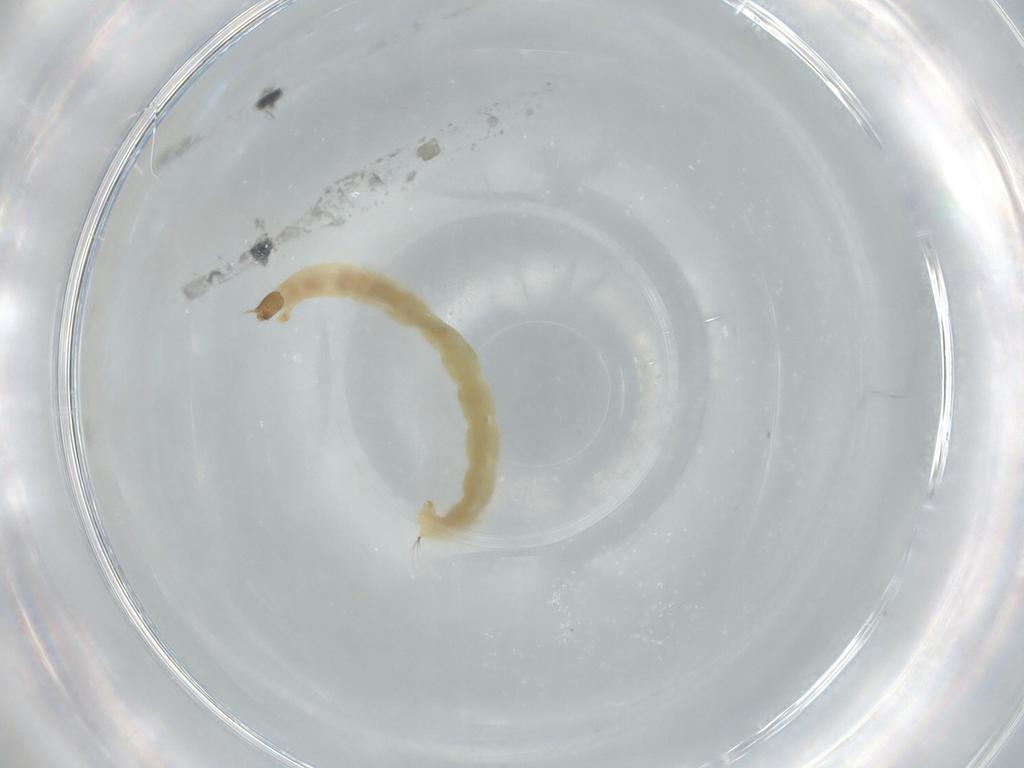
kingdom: Animalia
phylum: Arthropoda
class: Insecta
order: Diptera
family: Chironomidae
